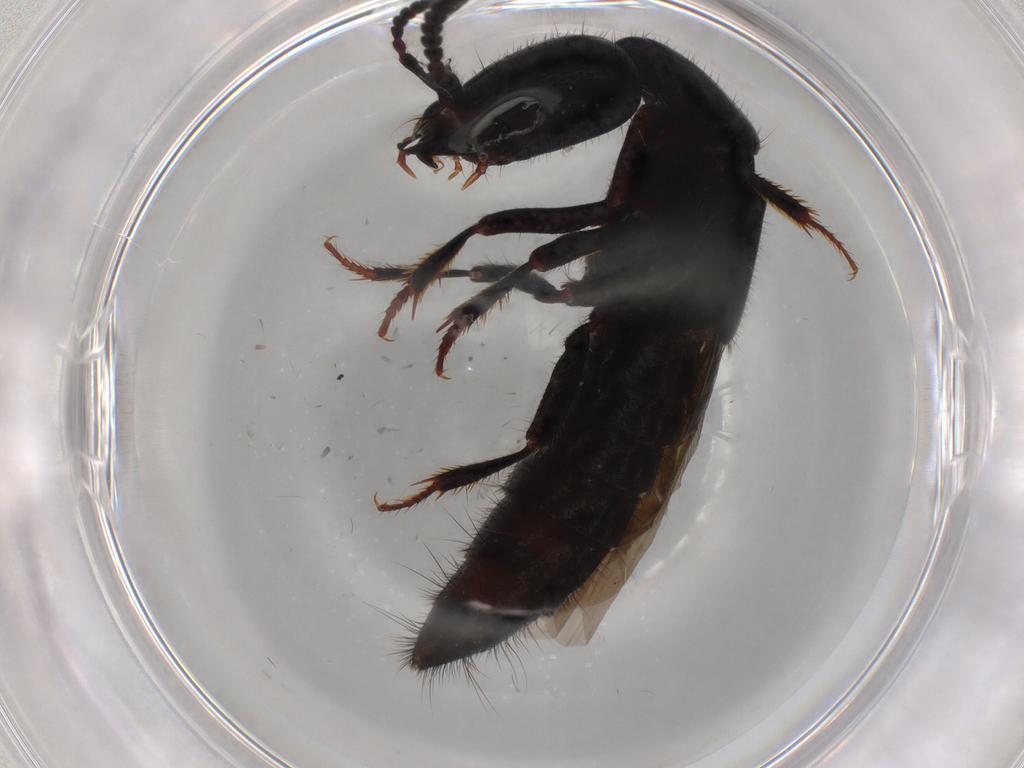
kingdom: Animalia
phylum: Arthropoda
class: Insecta
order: Coleoptera
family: Staphylinidae
